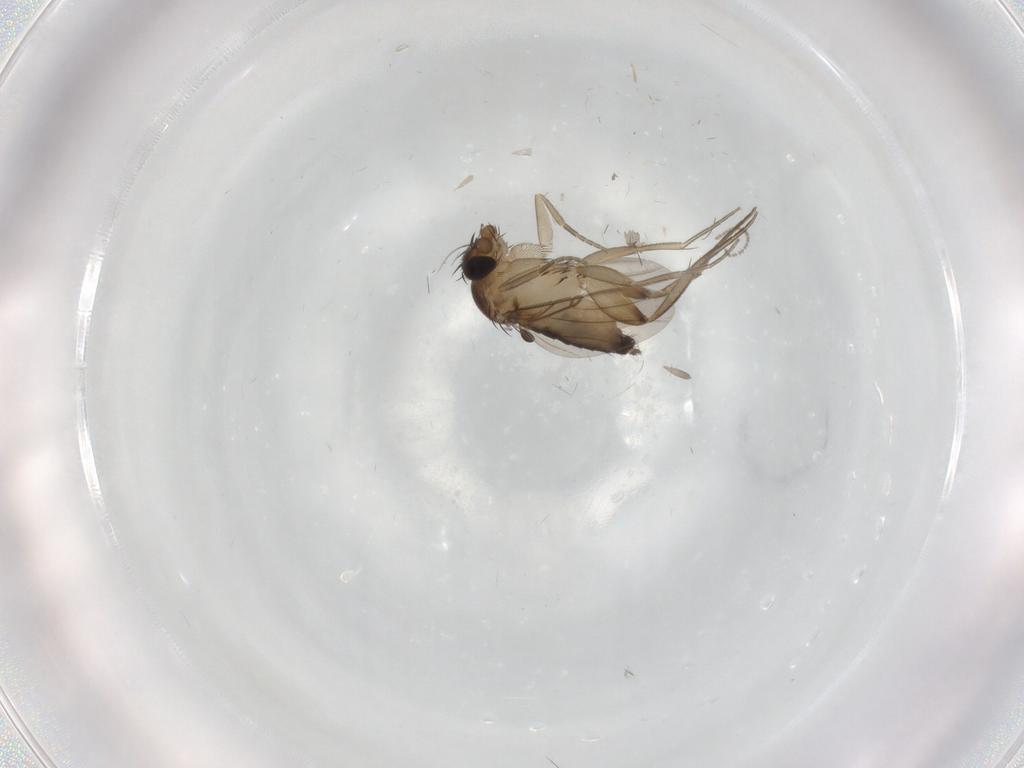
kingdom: Animalia
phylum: Arthropoda
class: Insecta
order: Diptera
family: Phoridae
